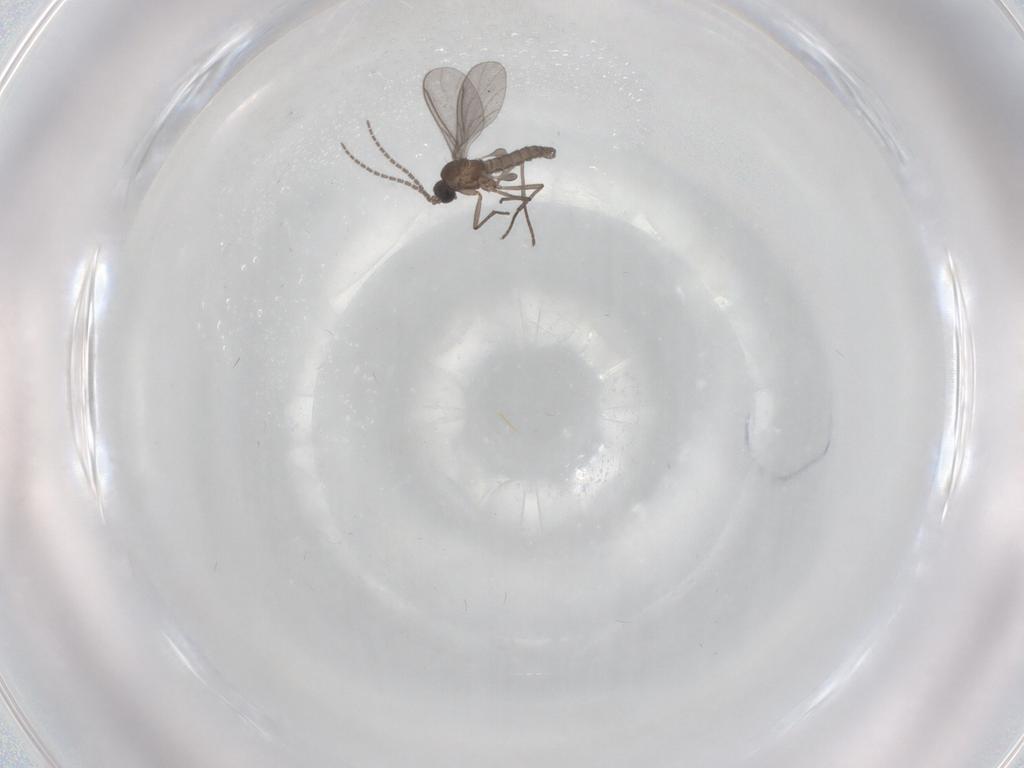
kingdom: Animalia
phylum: Arthropoda
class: Insecta
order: Diptera
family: Sciaridae
